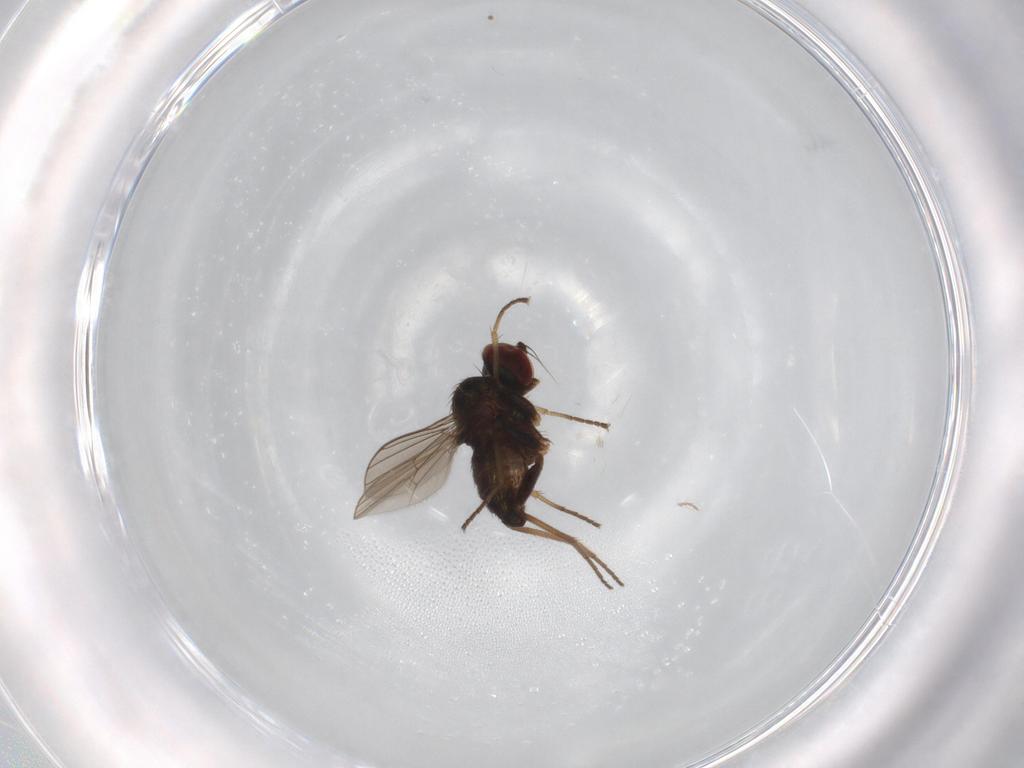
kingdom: Animalia
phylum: Arthropoda
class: Insecta
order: Diptera
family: Dolichopodidae
